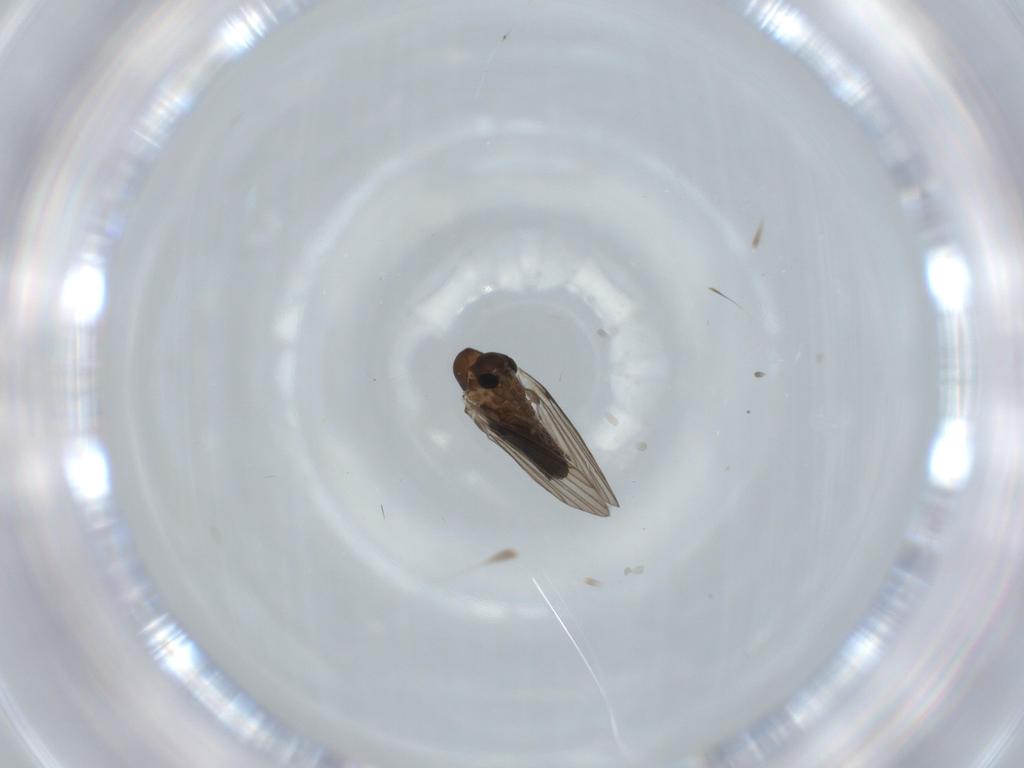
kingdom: Animalia
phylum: Arthropoda
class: Insecta
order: Diptera
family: Psychodidae
